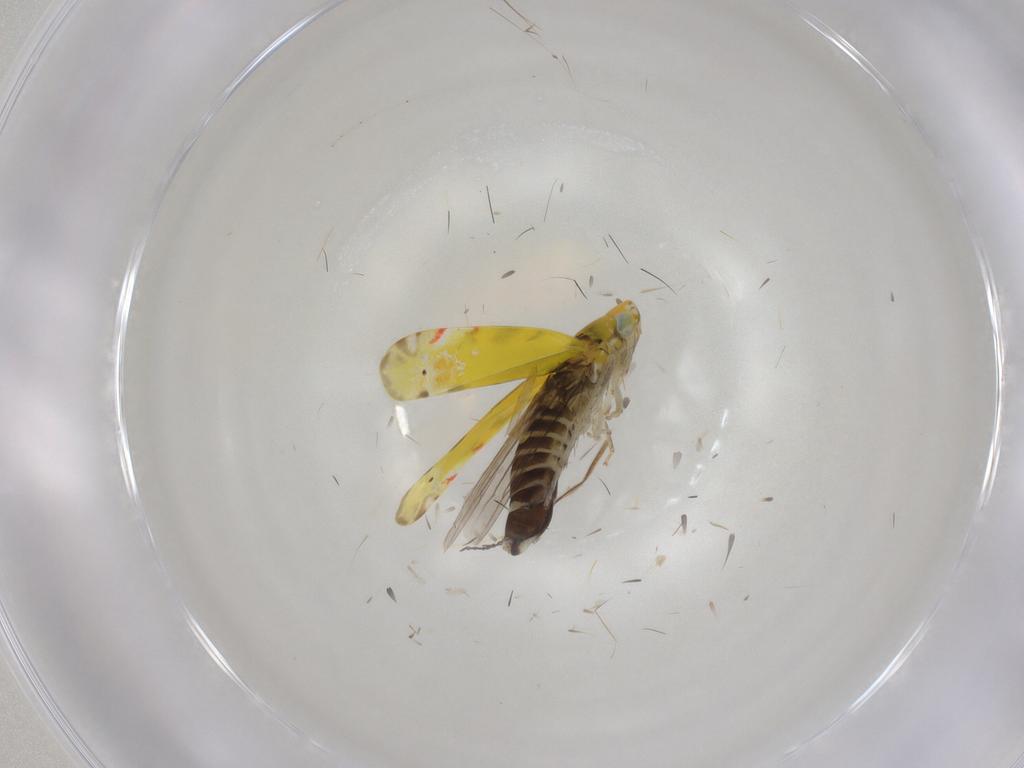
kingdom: Animalia
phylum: Arthropoda
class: Insecta
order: Hemiptera
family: Cicadellidae
